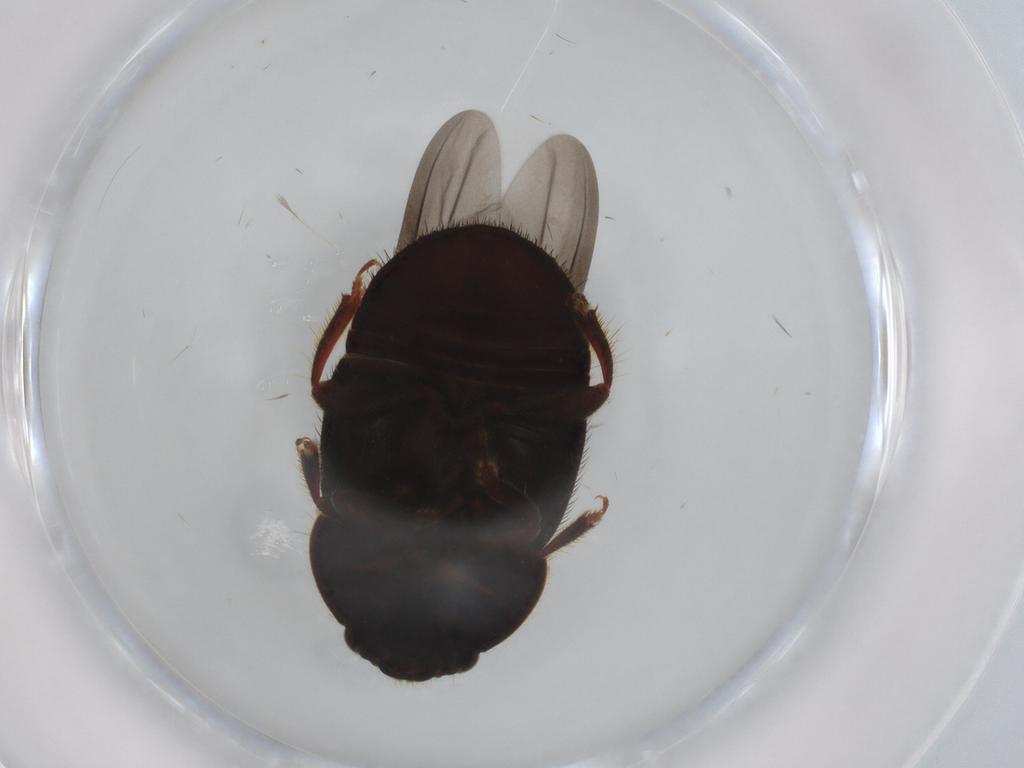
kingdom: Animalia
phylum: Arthropoda
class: Insecta
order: Coleoptera
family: Nitidulidae
